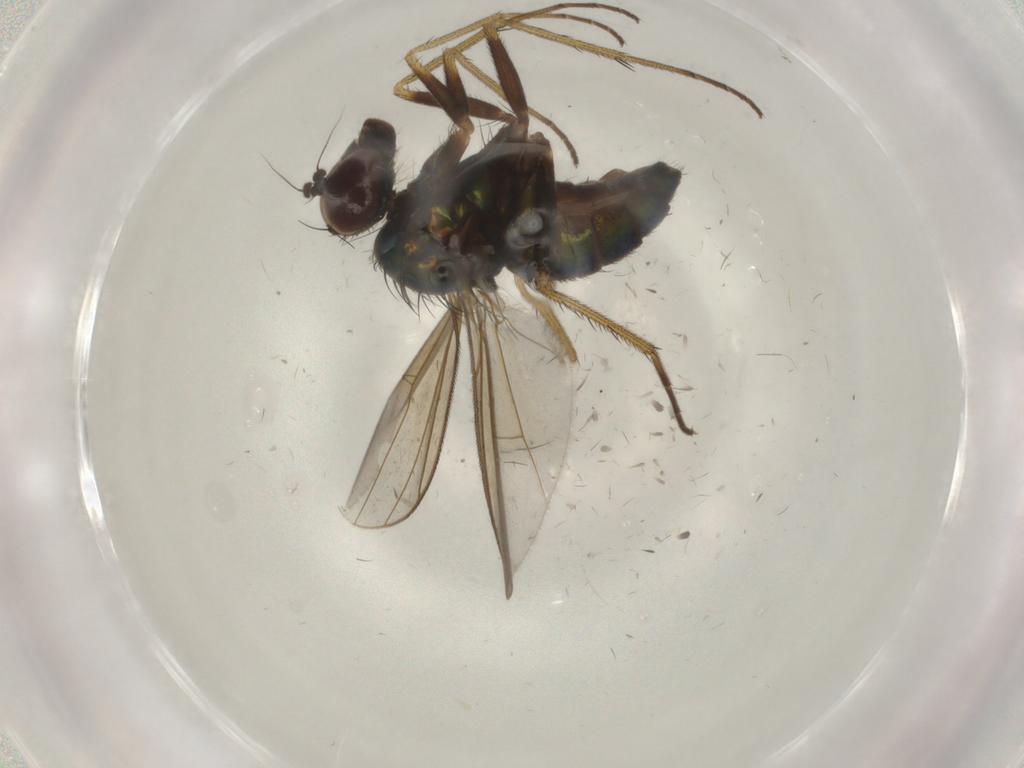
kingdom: Animalia
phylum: Arthropoda
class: Insecta
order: Diptera
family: Dolichopodidae
